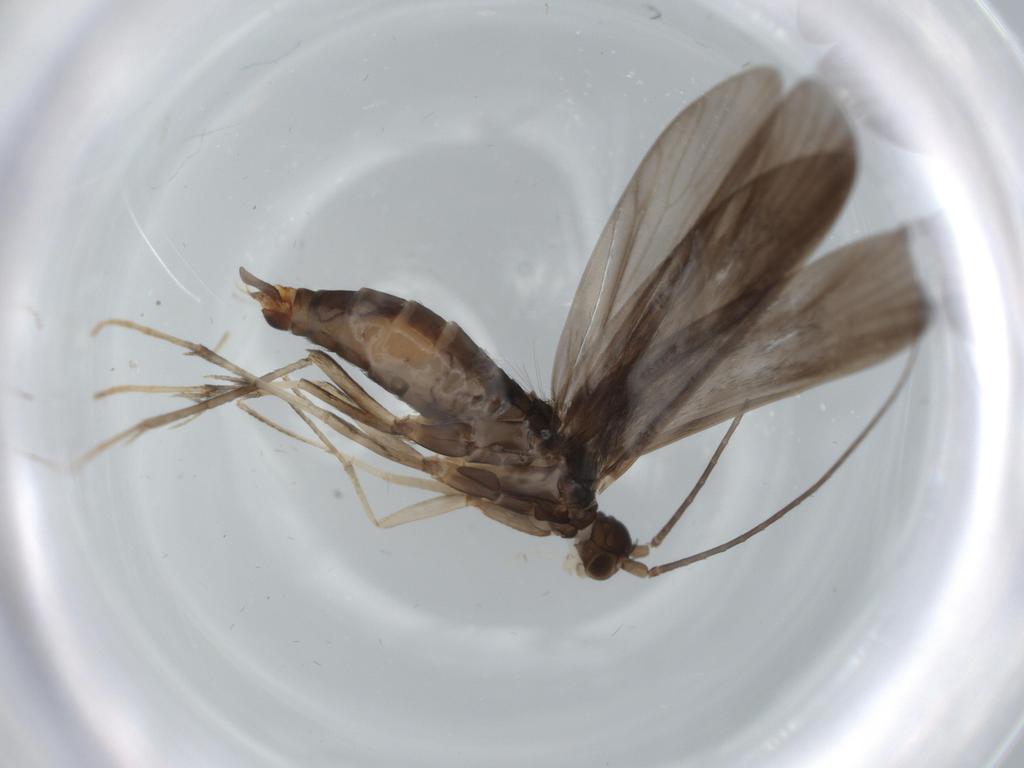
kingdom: Animalia
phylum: Arthropoda
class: Insecta
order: Trichoptera
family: Xiphocentronidae
